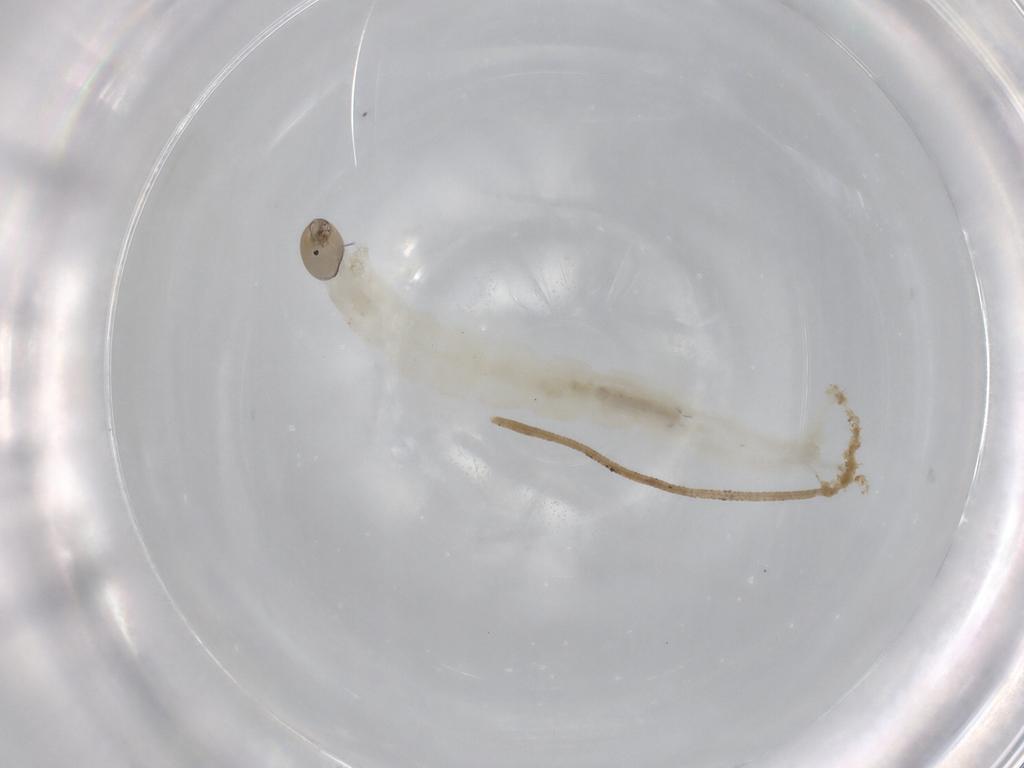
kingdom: Animalia
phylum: Arthropoda
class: Insecta
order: Diptera
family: Chironomidae
